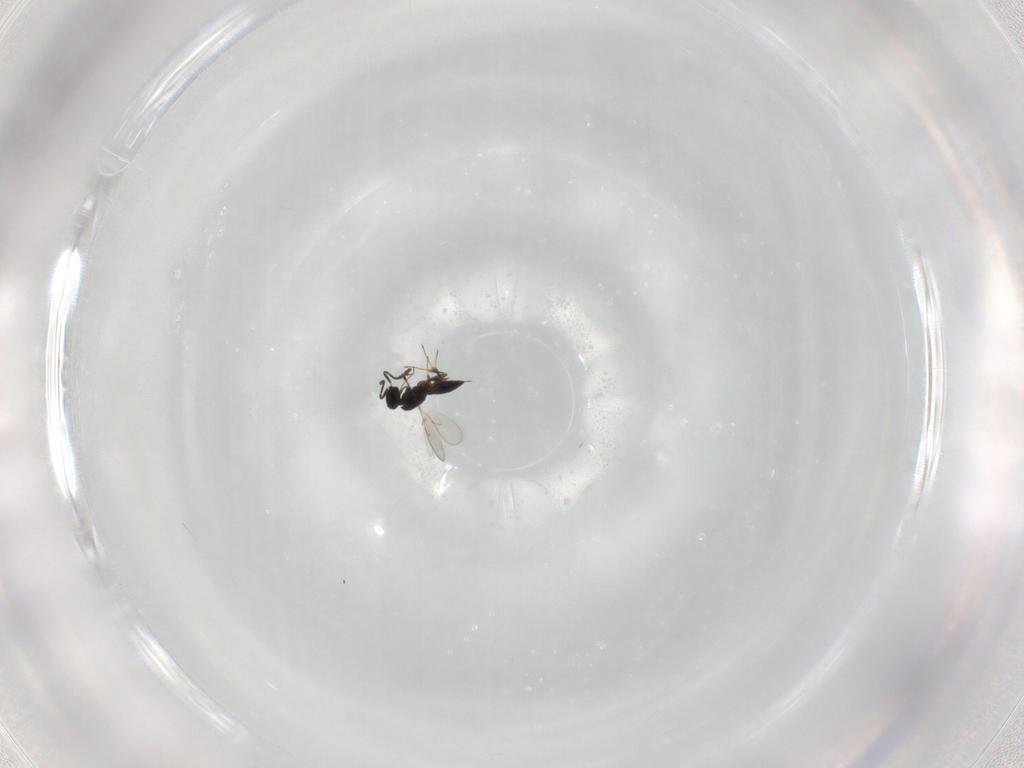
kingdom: Animalia
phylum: Arthropoda
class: Insecta
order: Hymenoptera
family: Scelionidae
